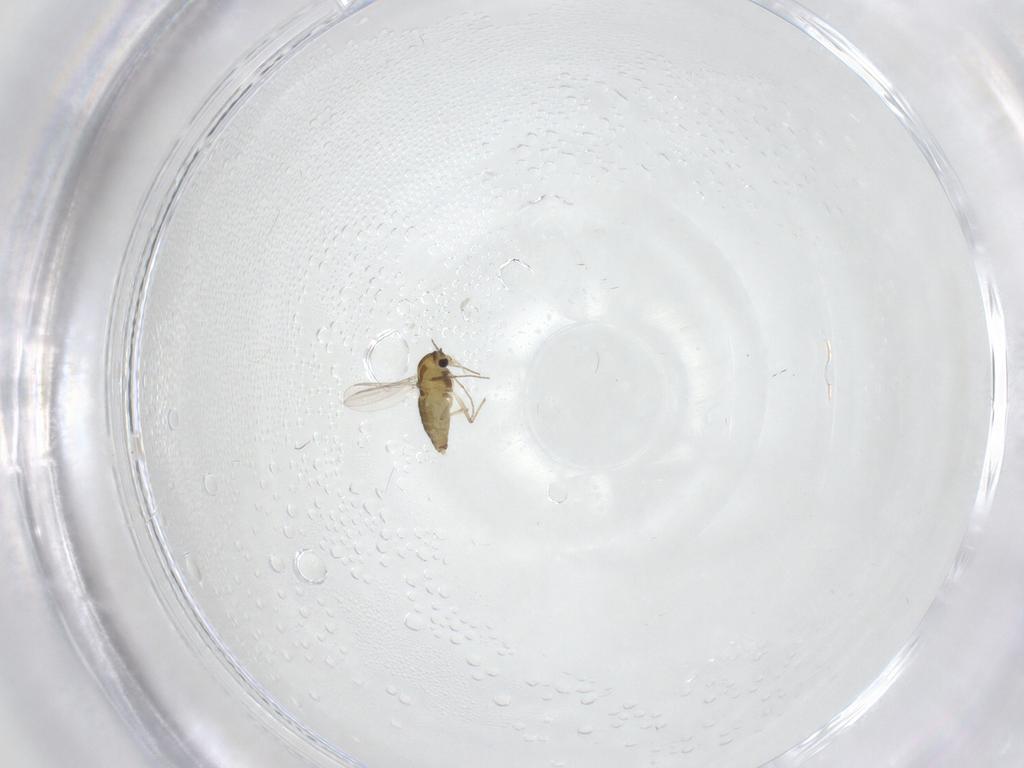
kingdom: Animalia
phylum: Arthropoda
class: Insecta
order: Diptera
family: Chironomidae
